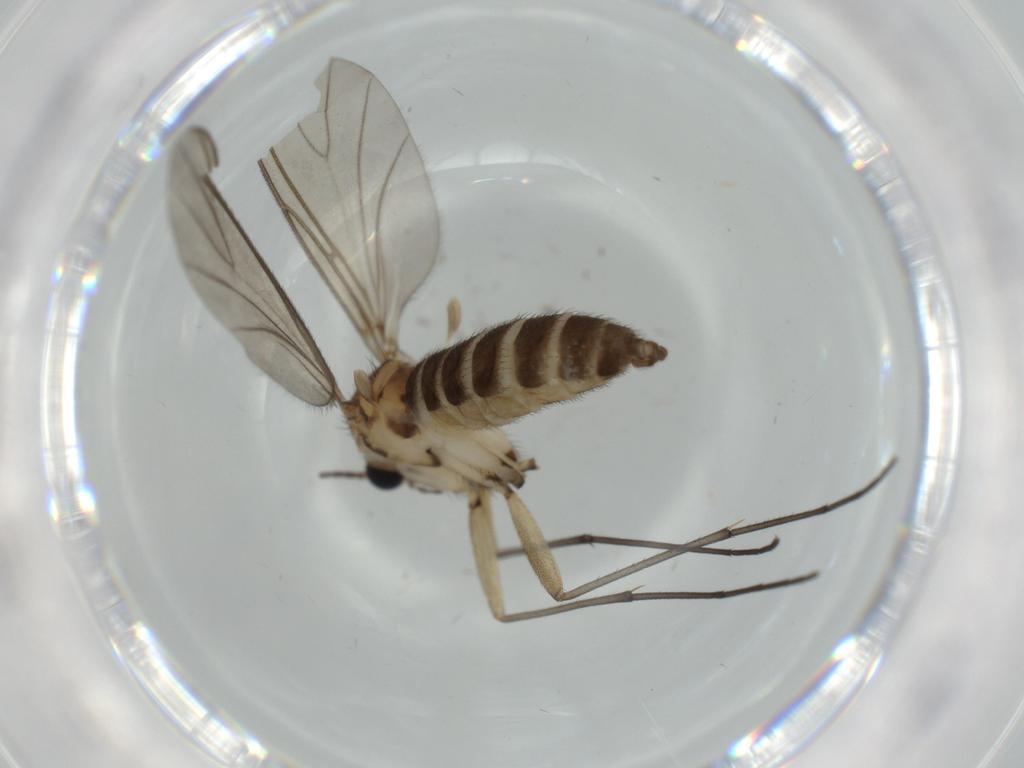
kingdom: Animalia
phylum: Arthropoda
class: Insecta
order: Diptera
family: Sciaridae
